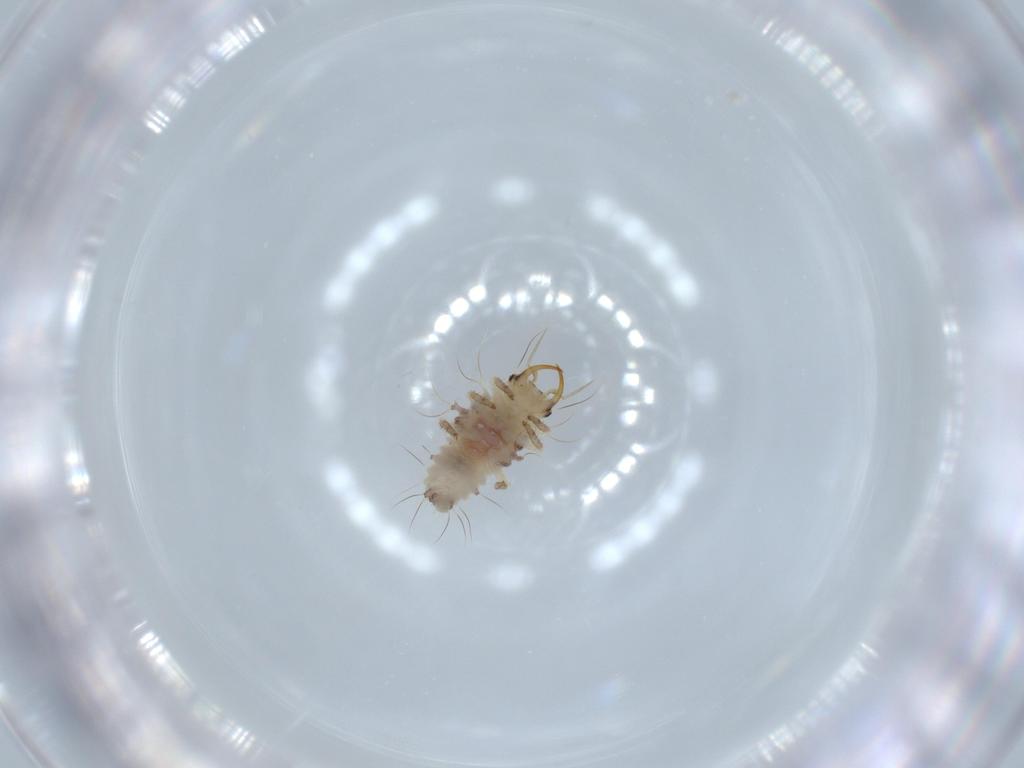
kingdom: Animalia
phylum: Arthropoda
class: Insecta
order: Neuroptera
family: Chrysopidae
